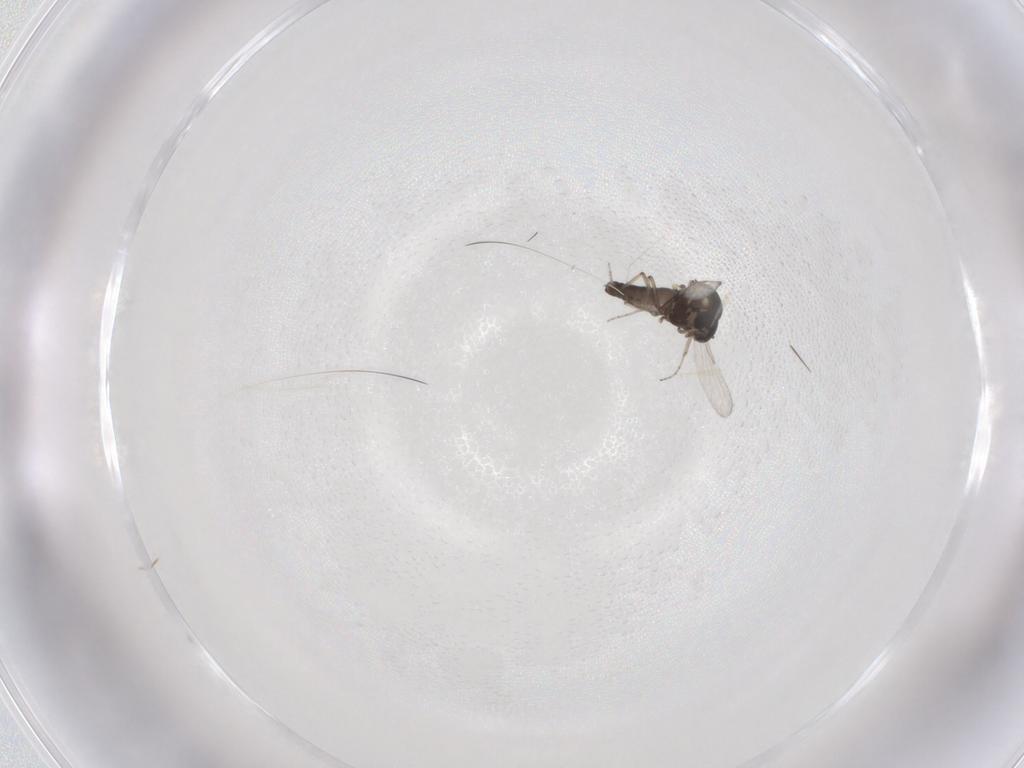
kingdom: Animalia
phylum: Arthropoda
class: Insecta
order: Diptera
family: Ceratopogonidae
